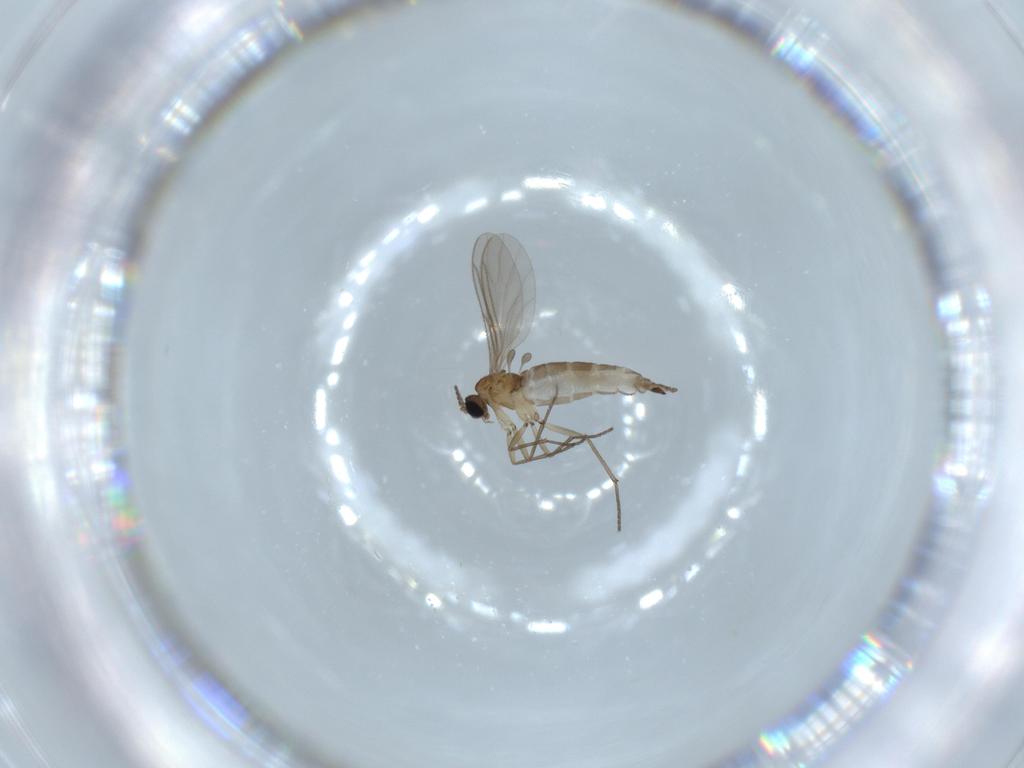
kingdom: Animalia
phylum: Arthropoda
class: Insecta
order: Diptera
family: Sciaridae
